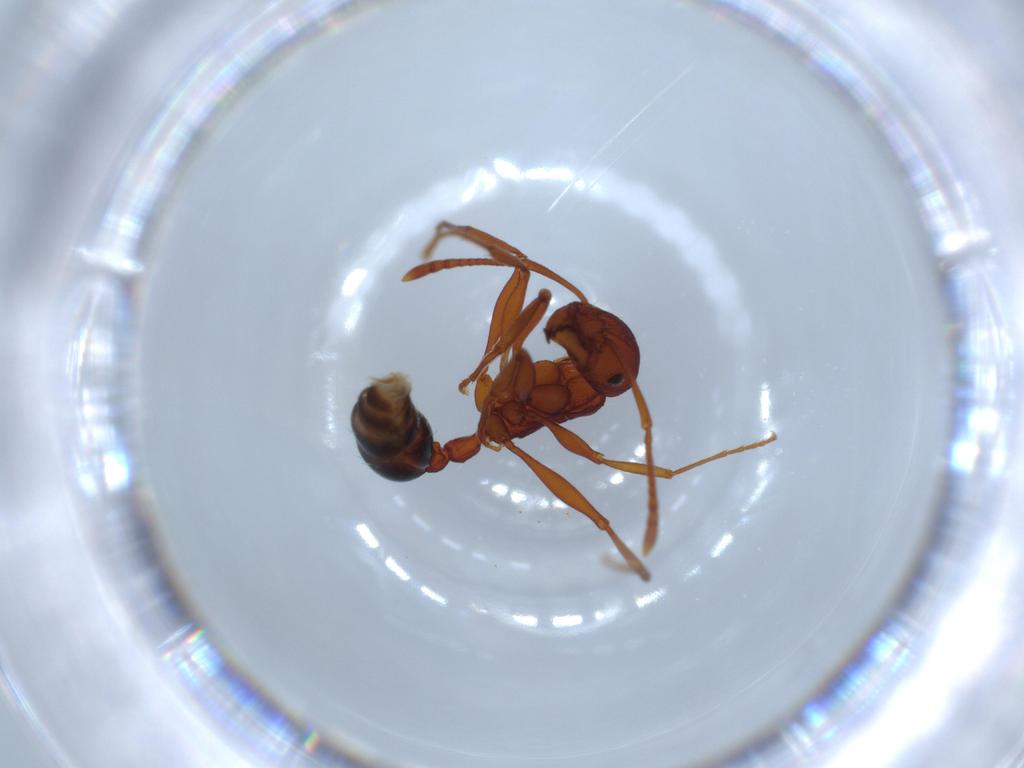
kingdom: Animalia
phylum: Arthropoda
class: Insecta
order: Hymenoptera
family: Formicidae
